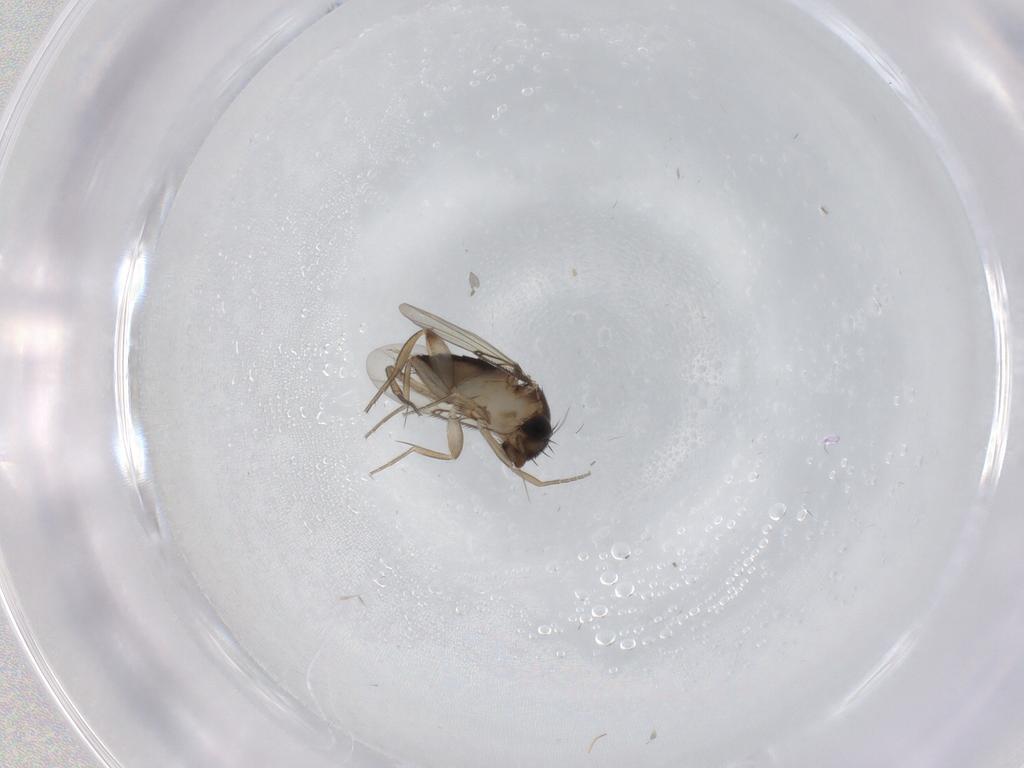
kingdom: Animalia
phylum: Arthropoda
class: Insecta
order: Diptera
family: Phoridae
